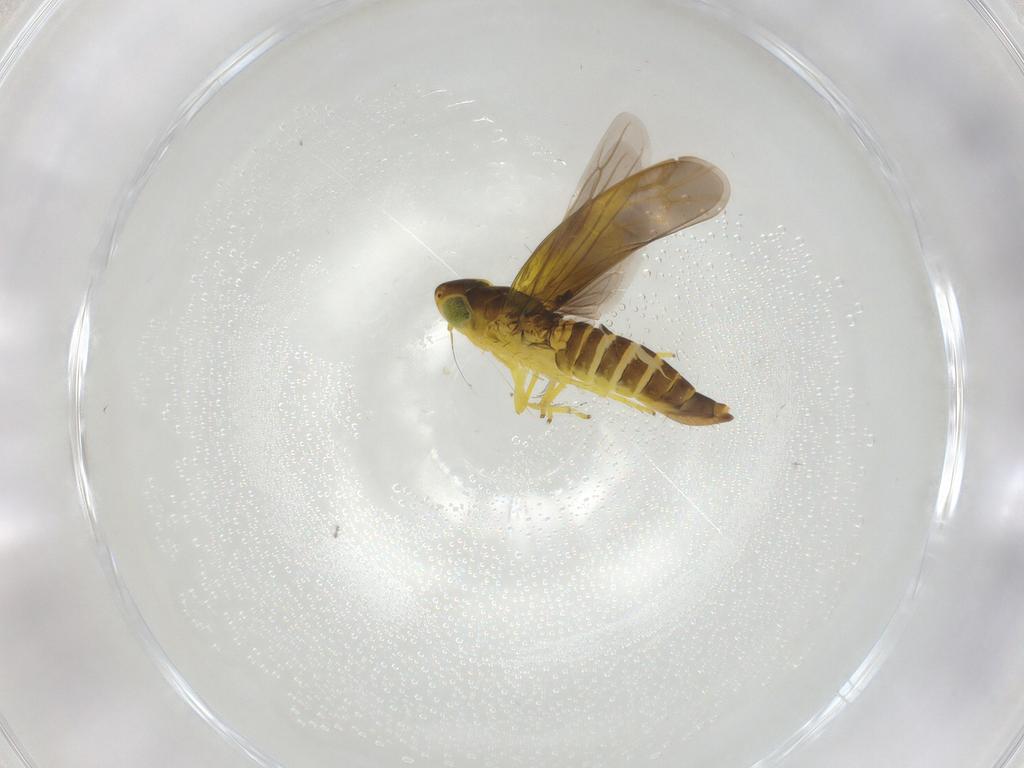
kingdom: Animalia
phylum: Arthropoda
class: Insecta
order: Hemiptera
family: Cicadellidae
